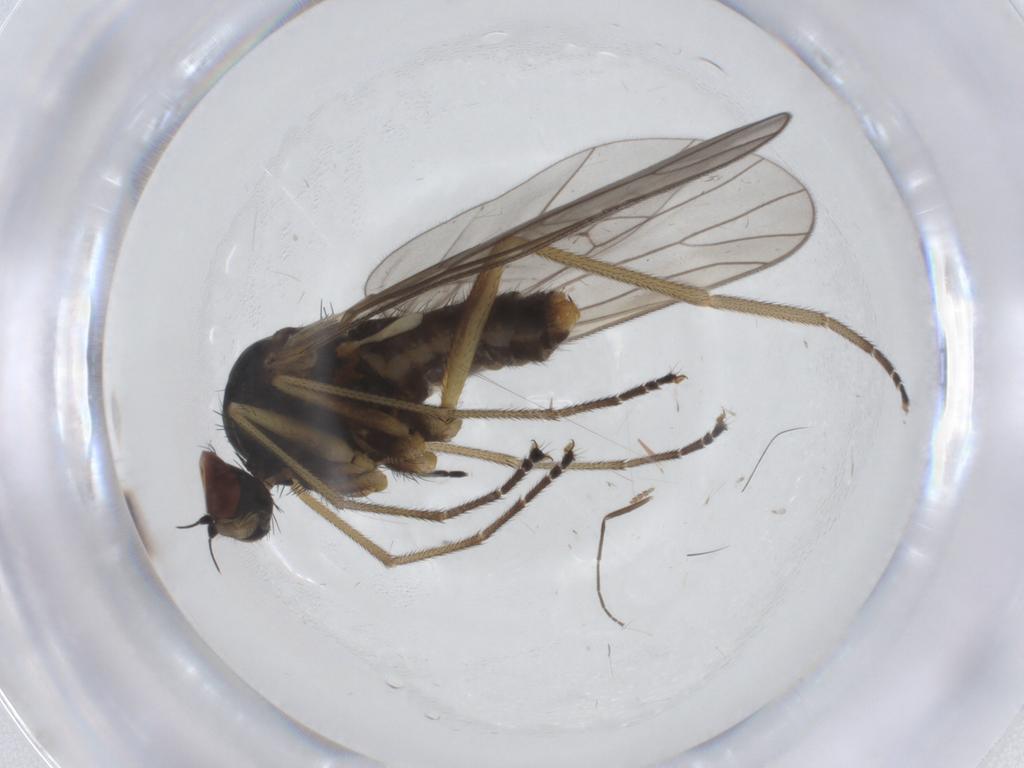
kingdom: Animalia
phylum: Arthropoda
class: Insecta
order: Diptera
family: Brachystomatidae
